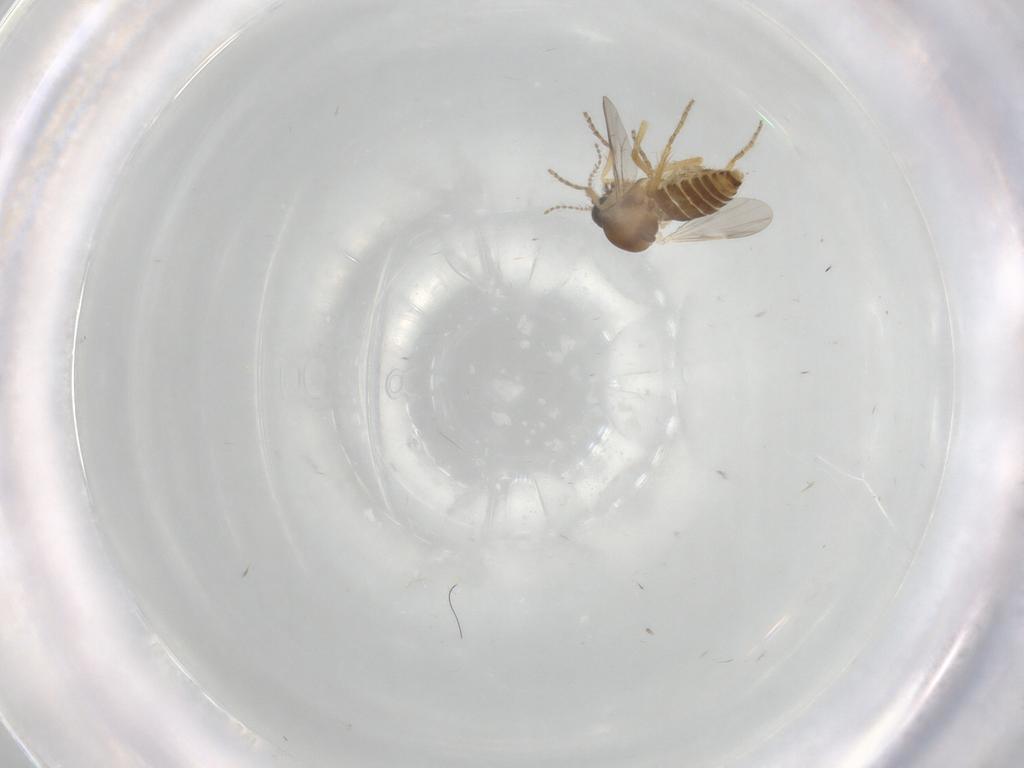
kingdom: Animalia
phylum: Arthropoda
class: Insecta
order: Diptera
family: Ceratopogonidae
